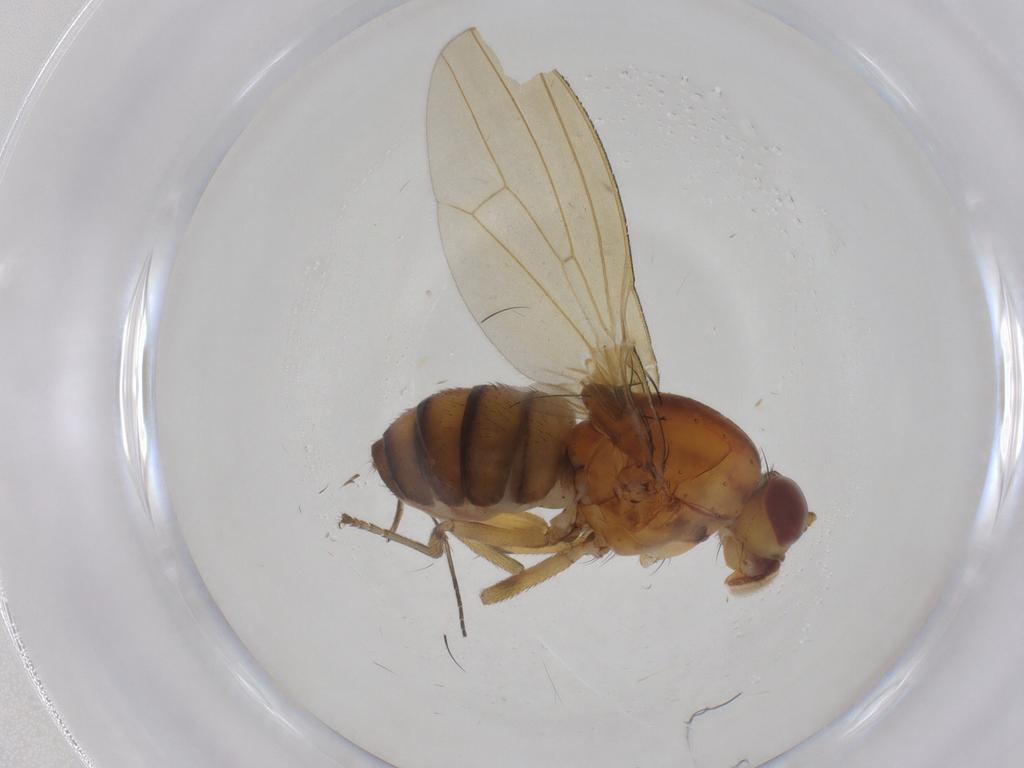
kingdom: Animalia
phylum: Arthropoda
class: Insecta
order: Diptera
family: Sciaridae
